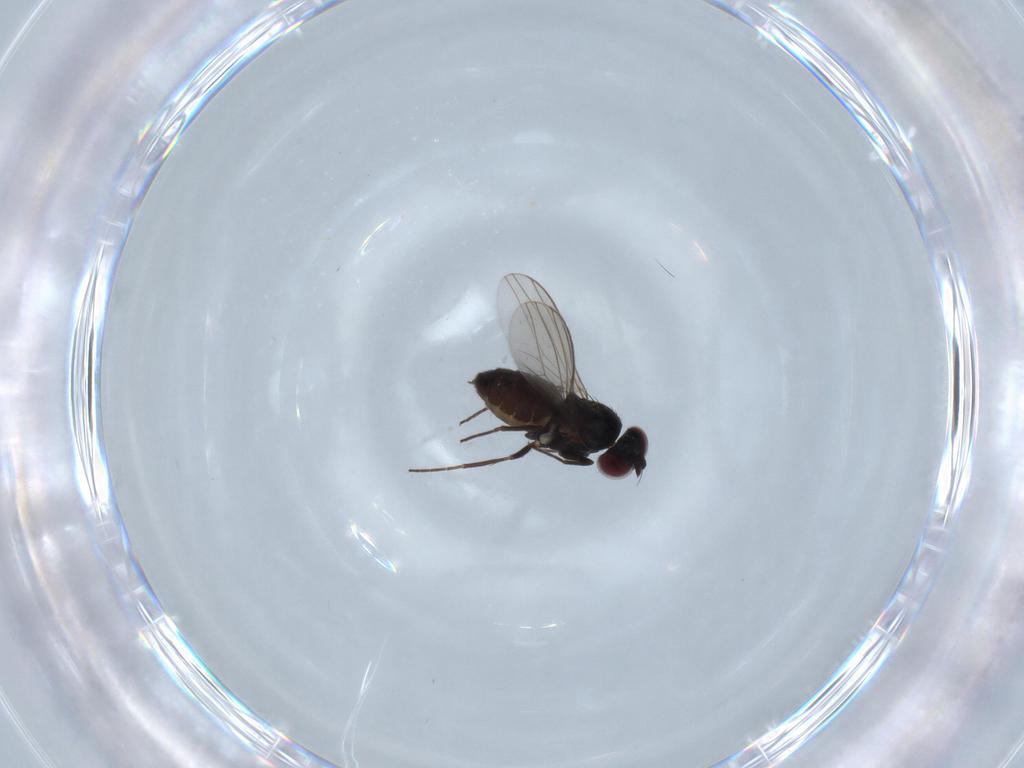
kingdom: Animalia
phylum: Arthropoda
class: Insecta
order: Diptera
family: Dolichopodidae
